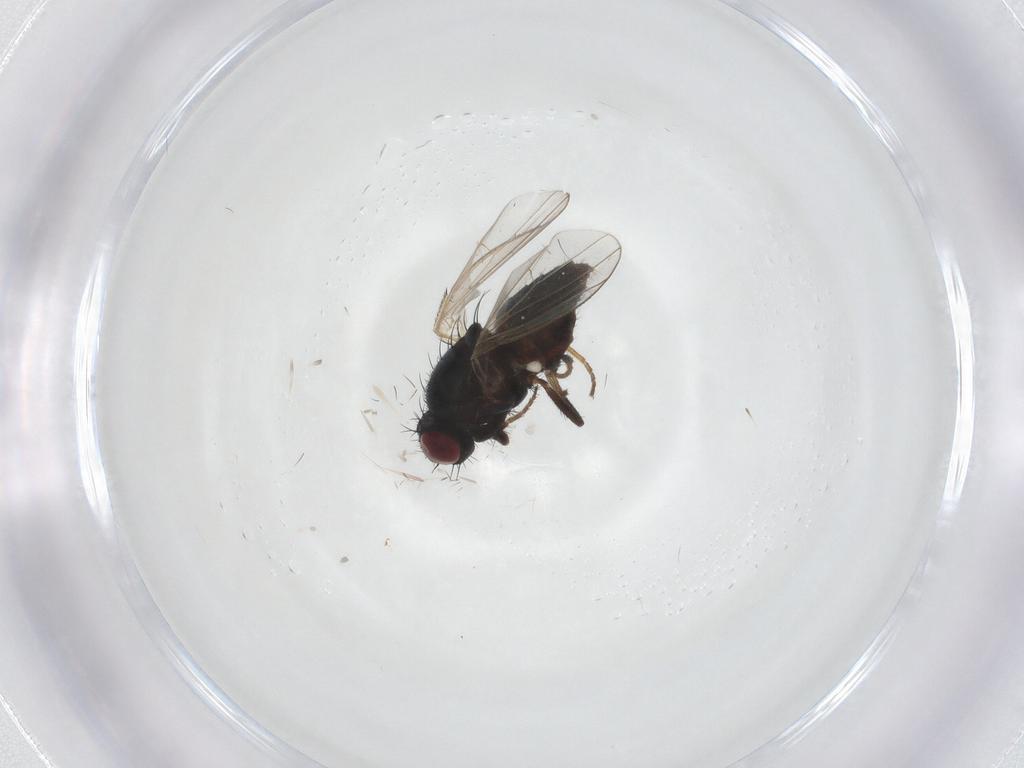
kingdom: Animalia
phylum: Arthropoda
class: Insecta
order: Diptera
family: Carnidae
